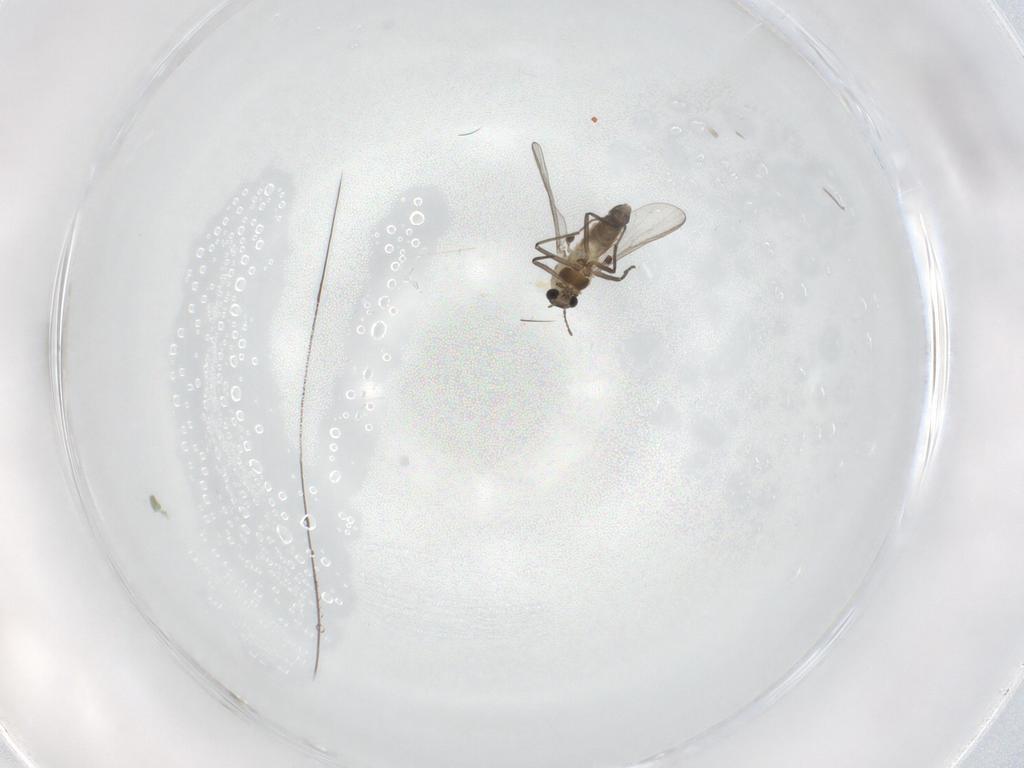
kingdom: Animalia
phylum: Arthropoda
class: Insecta
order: Diptera
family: Chironomidae
